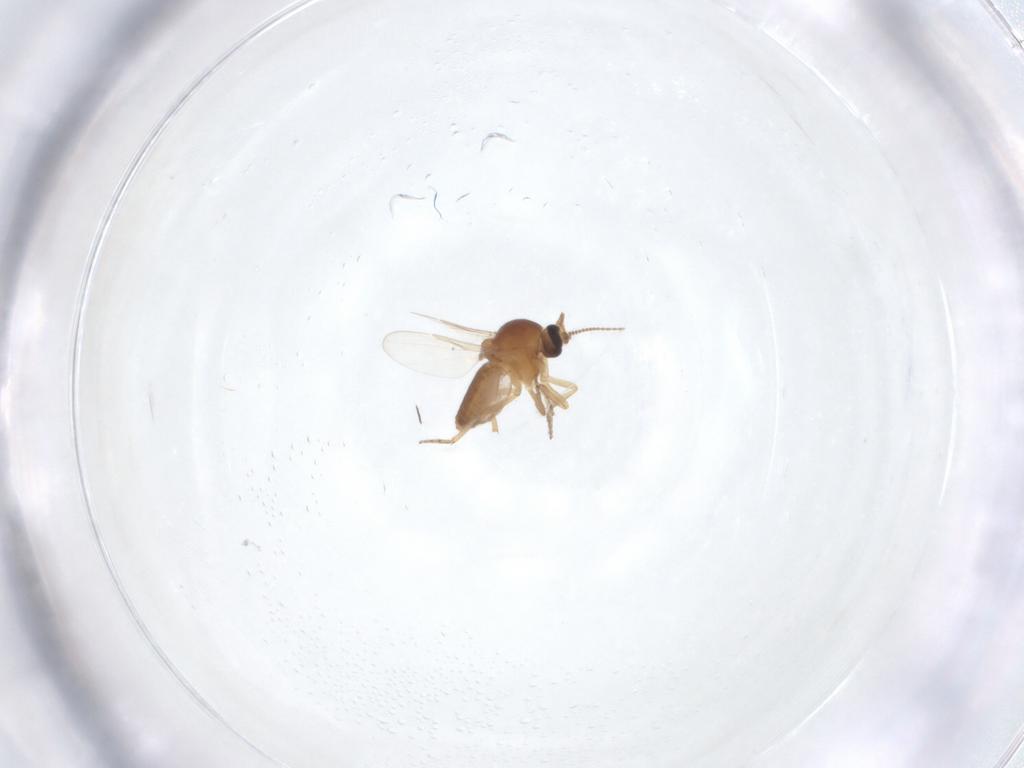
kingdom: Animalia
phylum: Arthropoda
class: Insecta
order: Diptera
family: Ceratopogonidae
